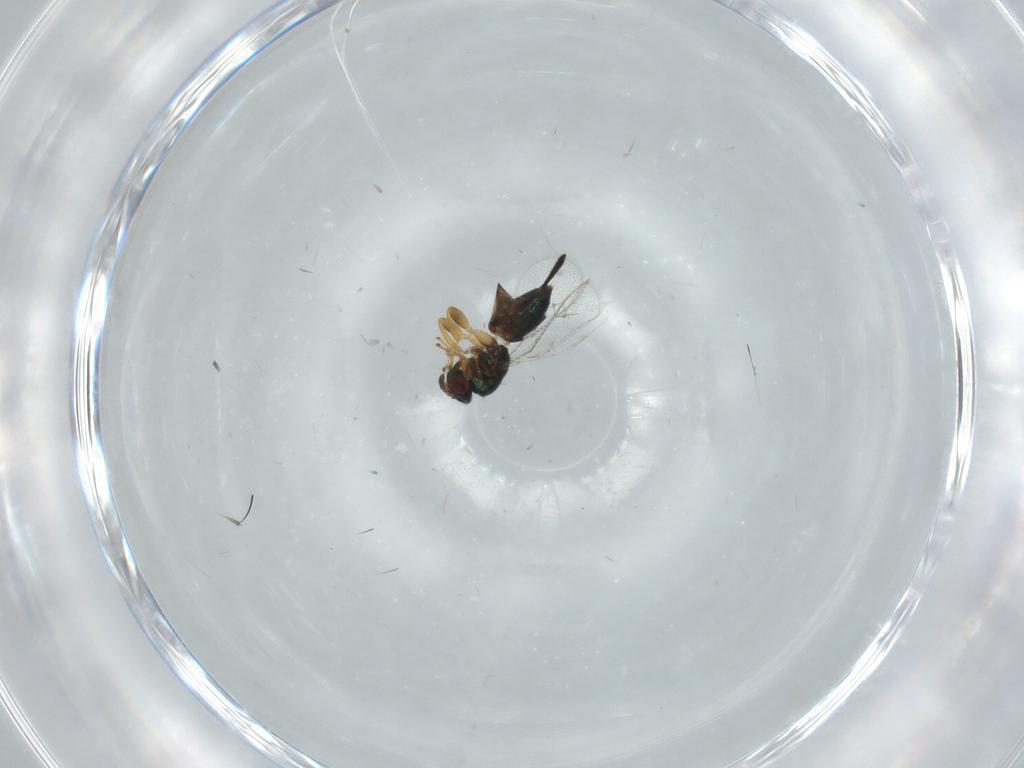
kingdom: Animalia
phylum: Arthropoda
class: Insecta
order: Hymenoptera
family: Torymidae
